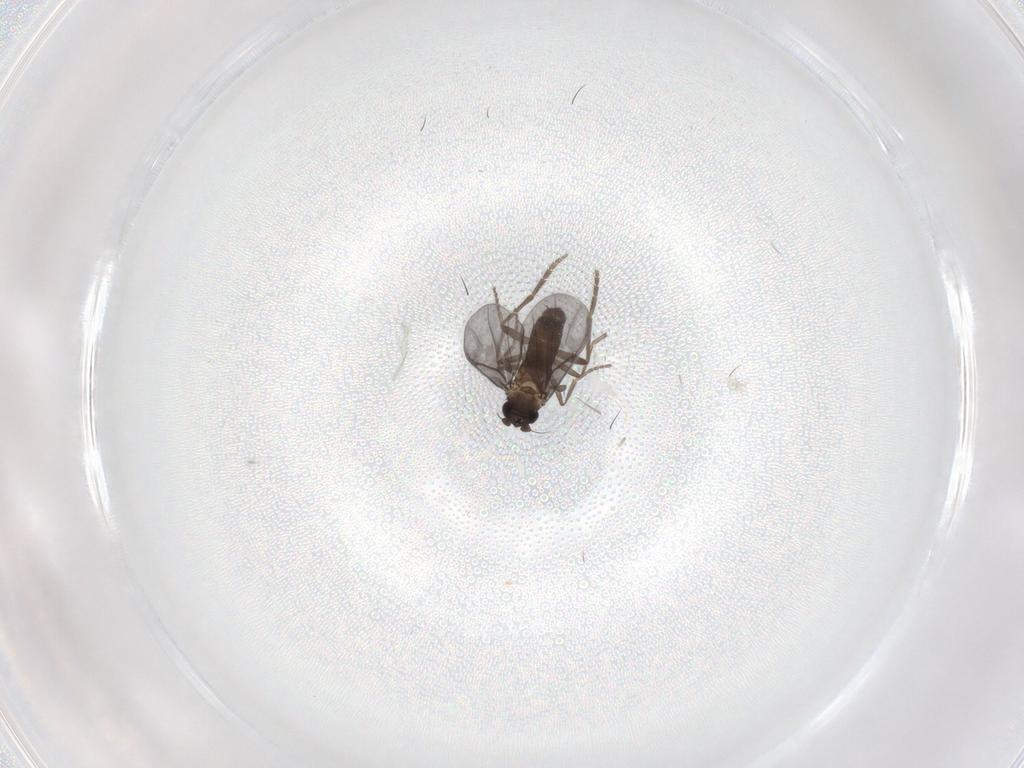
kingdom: Animalia
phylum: Arthropoda
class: Insecta
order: Diptera
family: Phoridae
